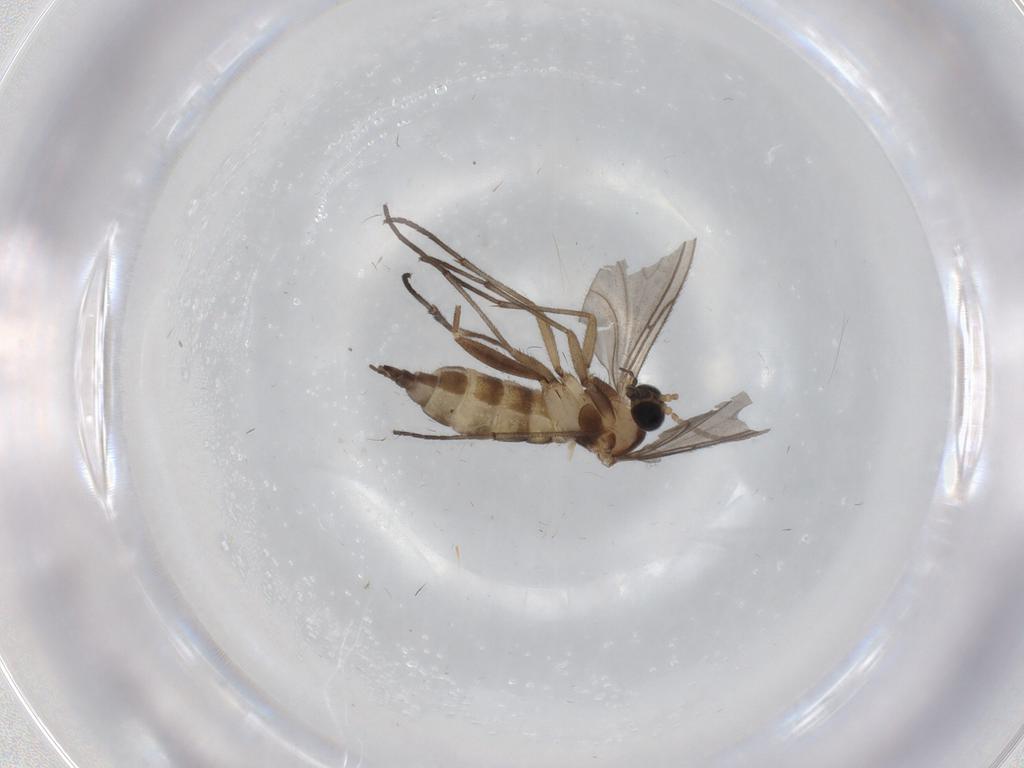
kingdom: Animalia
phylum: Arthropoda
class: Insecta
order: Diptera
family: Sciaridae
